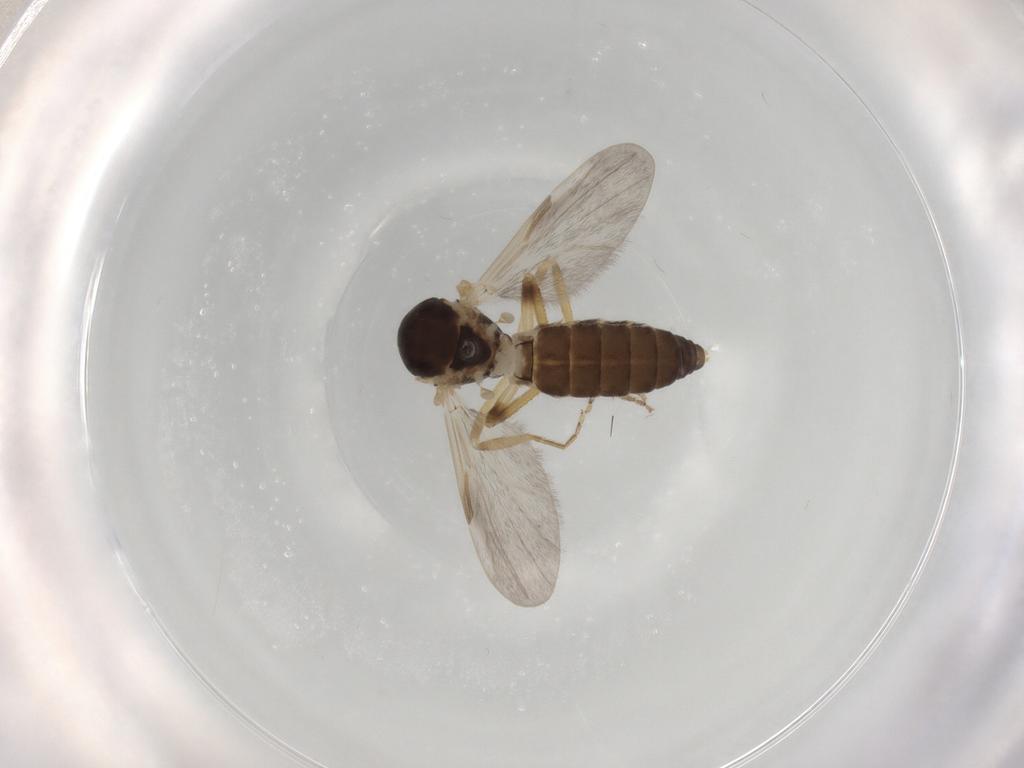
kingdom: Animalia
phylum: Arthropoda
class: Insecta
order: Diptera
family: Ceratopogonidae
